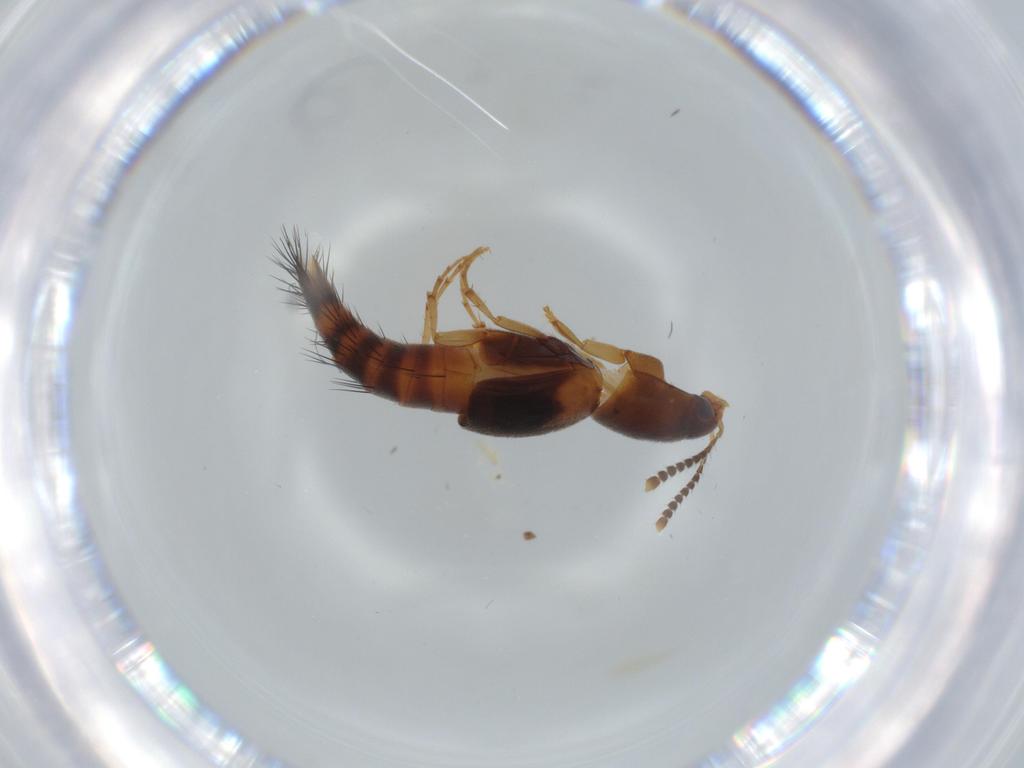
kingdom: Animalia
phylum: Arthropoda
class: Insecta
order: Coleoptera
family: Staphylinidae
